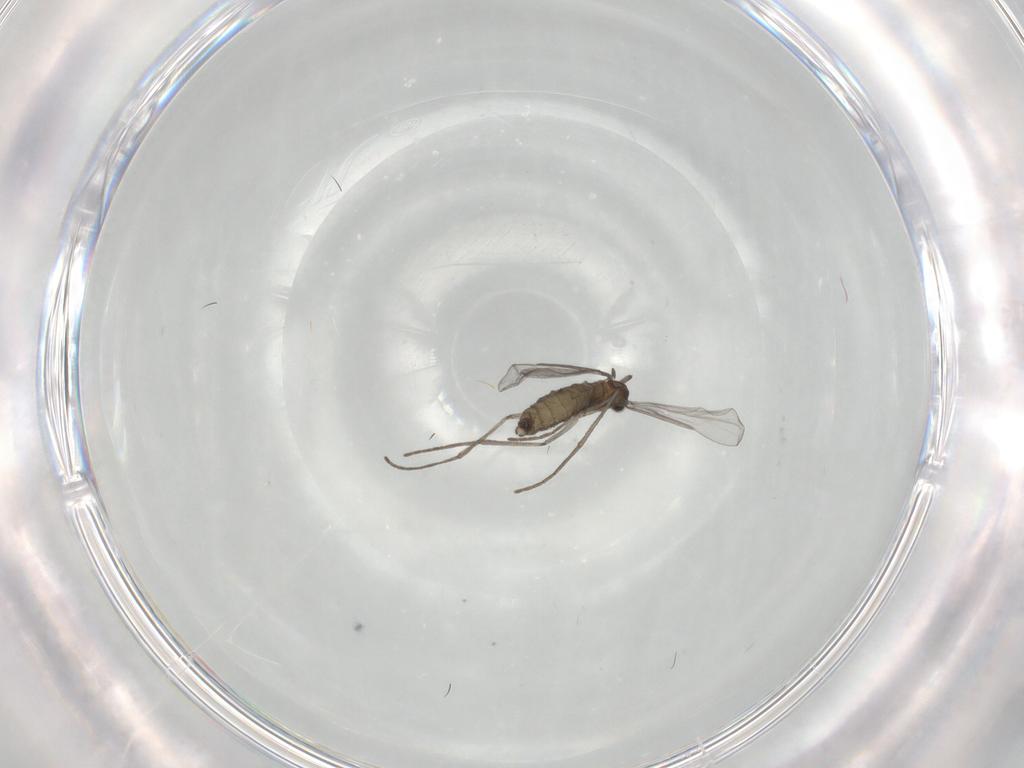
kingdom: Animalia
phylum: Arthropoda
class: Insecta
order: Diptera
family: Cecidomyiidae
